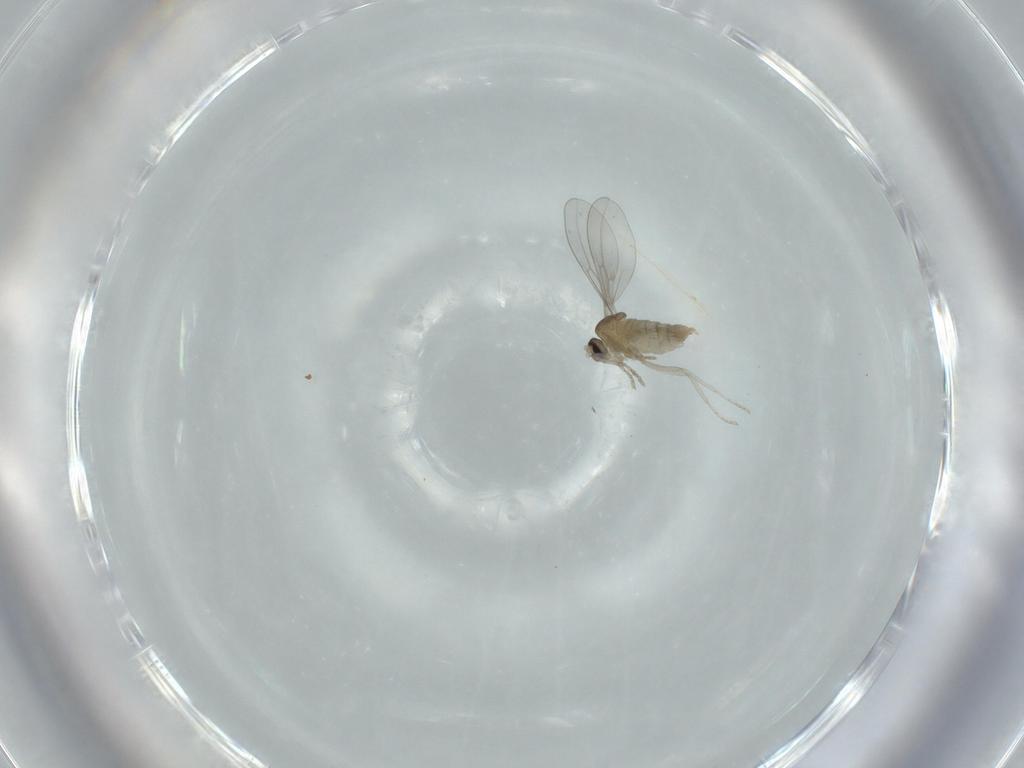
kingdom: Animalia
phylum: Arthropoda
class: Insecta
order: Diptera
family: Cecidomyiidae
